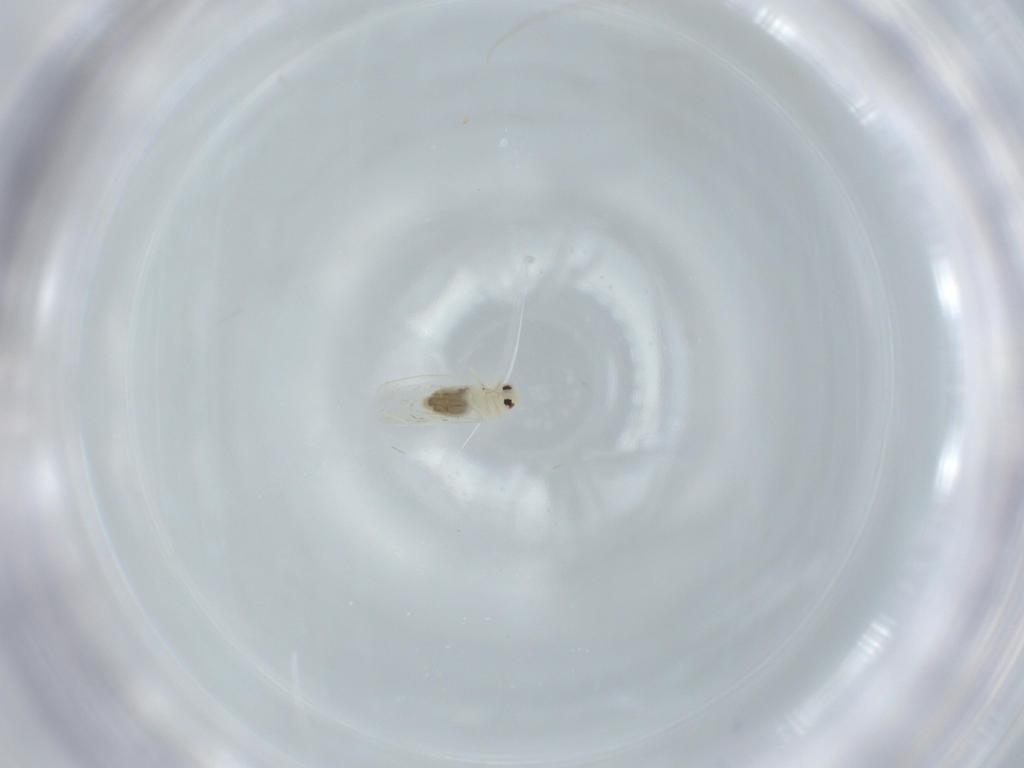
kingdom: Animalia
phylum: Arthropoda
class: Insecta
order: Hemiptera
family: Aleyrodidae
